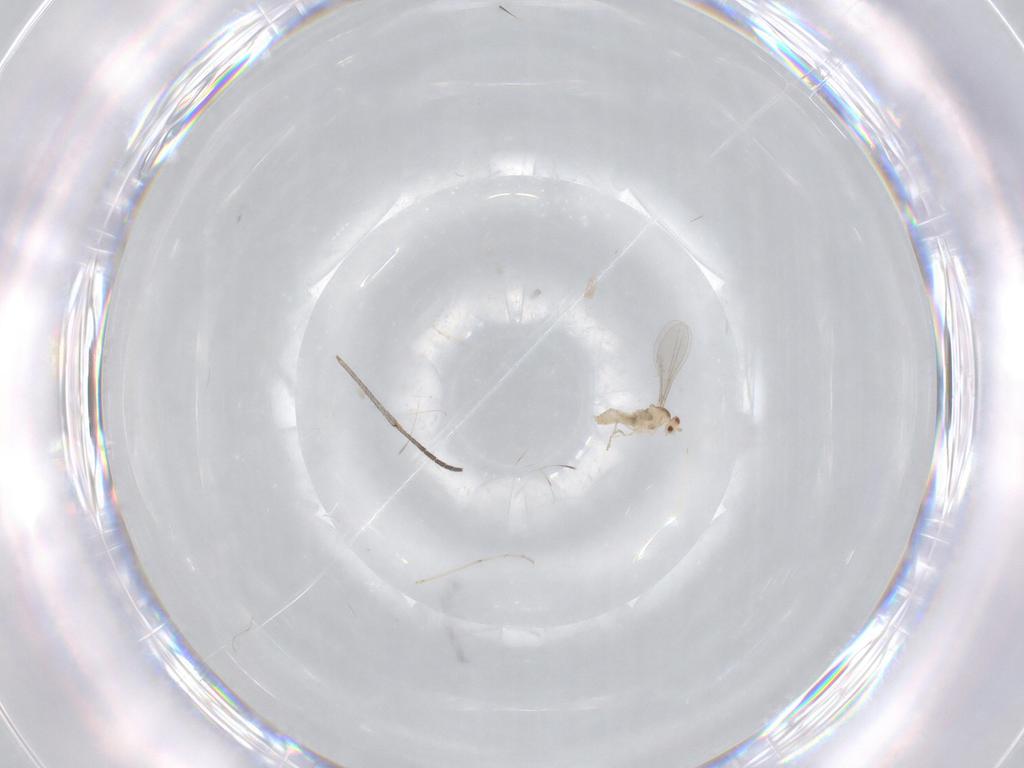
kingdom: Animalia
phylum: Arthropoda
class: Insecta
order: Diptera
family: Cecidomyiidae
